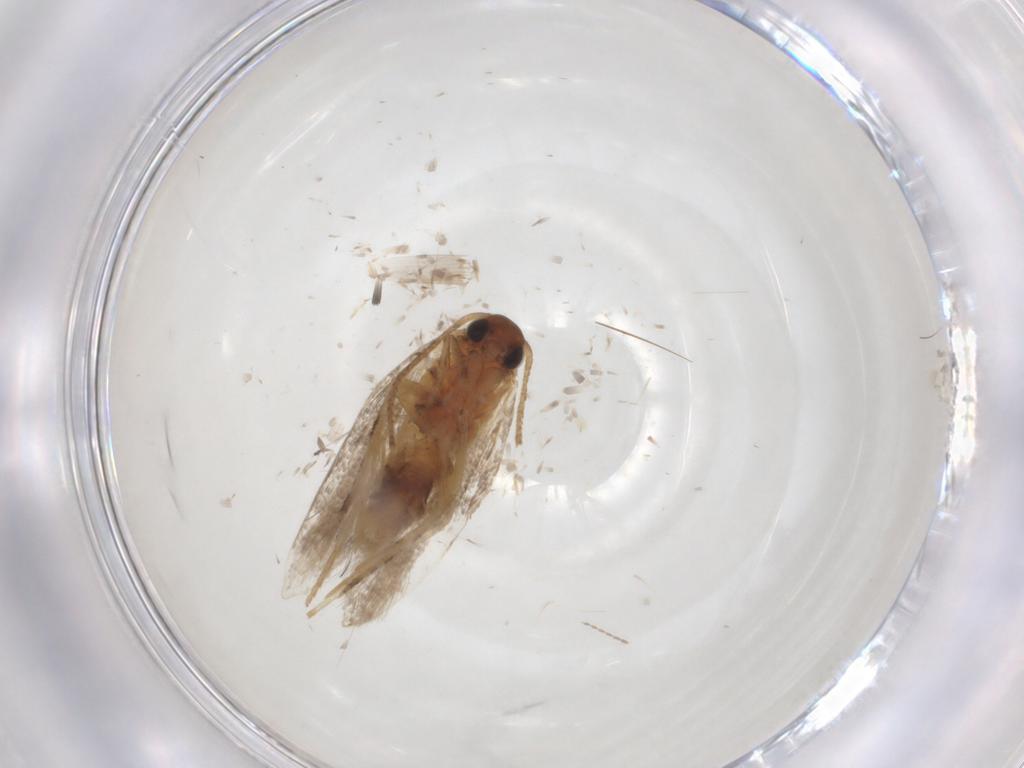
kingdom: Animalia
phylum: Arthropoda
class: Insecta
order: Lepidoptera
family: Gelechiidae
